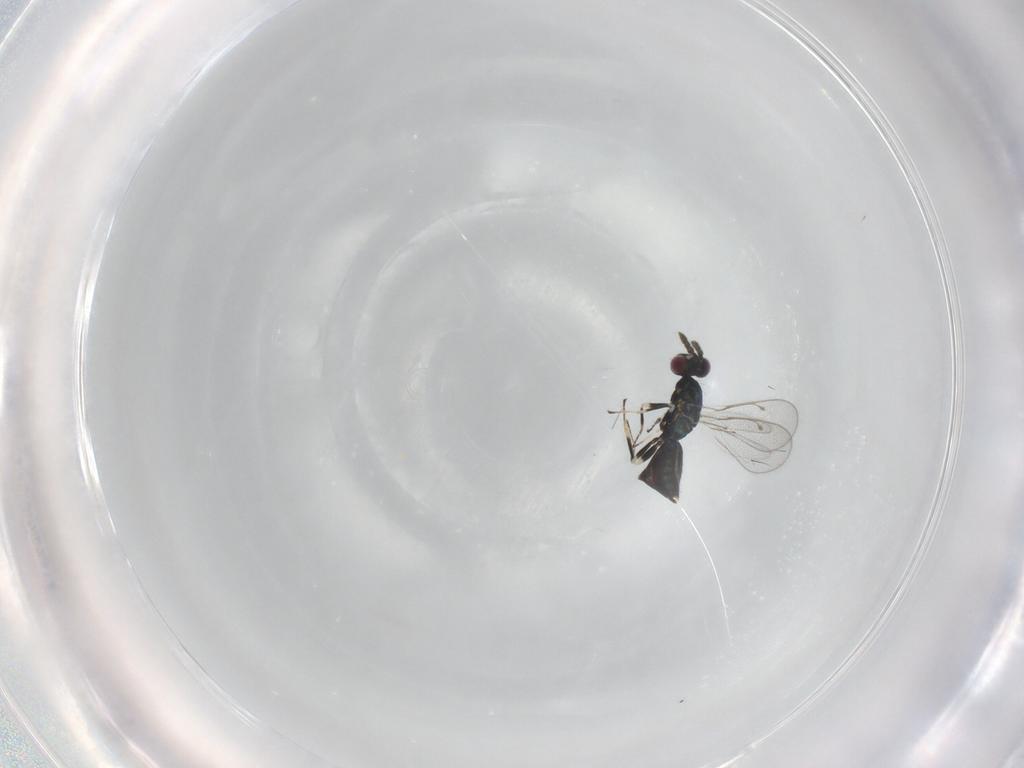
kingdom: Animalia
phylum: Arthropoda
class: Insecta
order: Hymenoptera
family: Eulophidae
